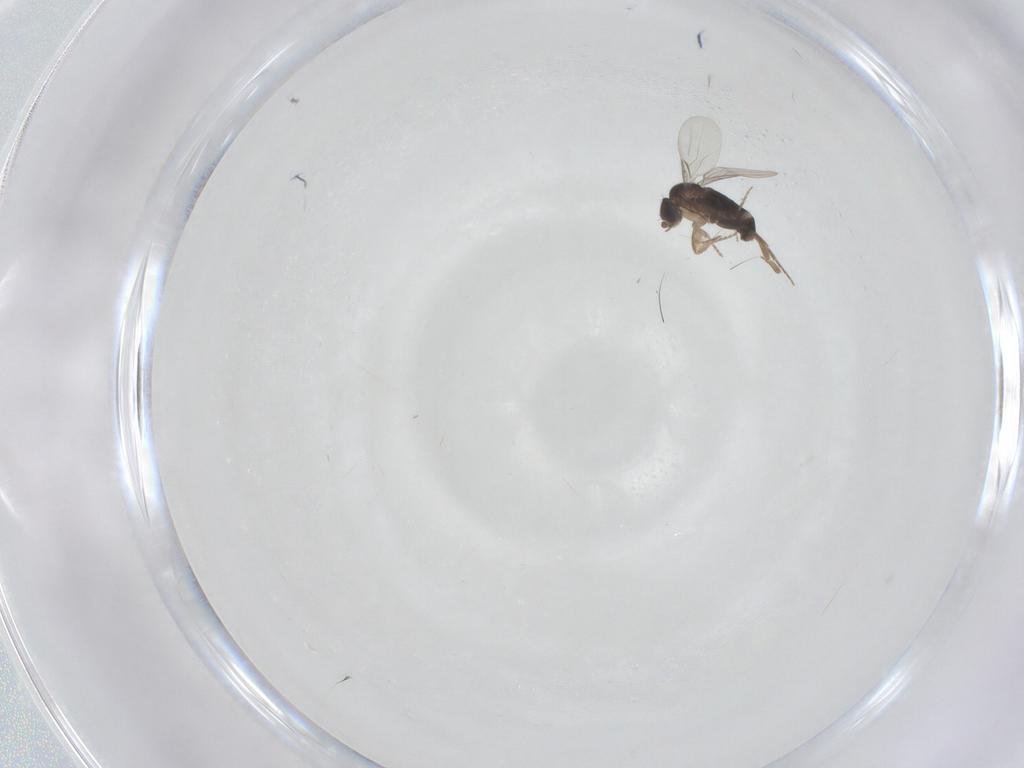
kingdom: Animalia
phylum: Arthropoda
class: Insecta
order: Diptera
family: Phoridae
